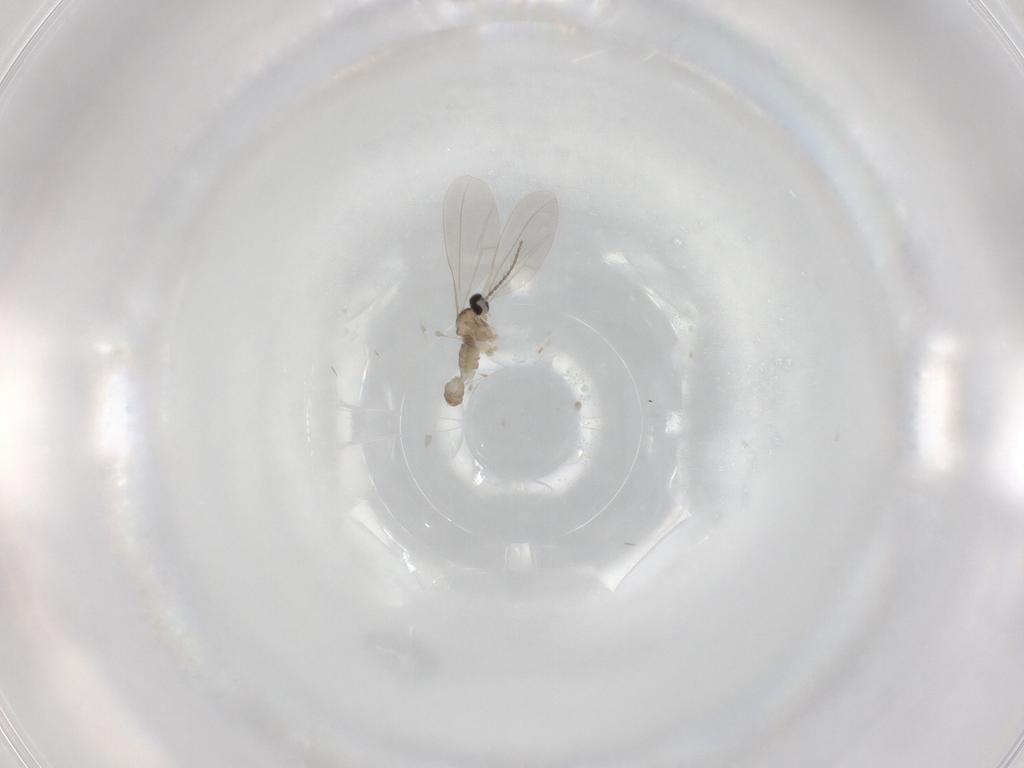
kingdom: Animalia
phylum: Arthropoda
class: Insecta
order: Diptera
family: Cecidomyiidae
